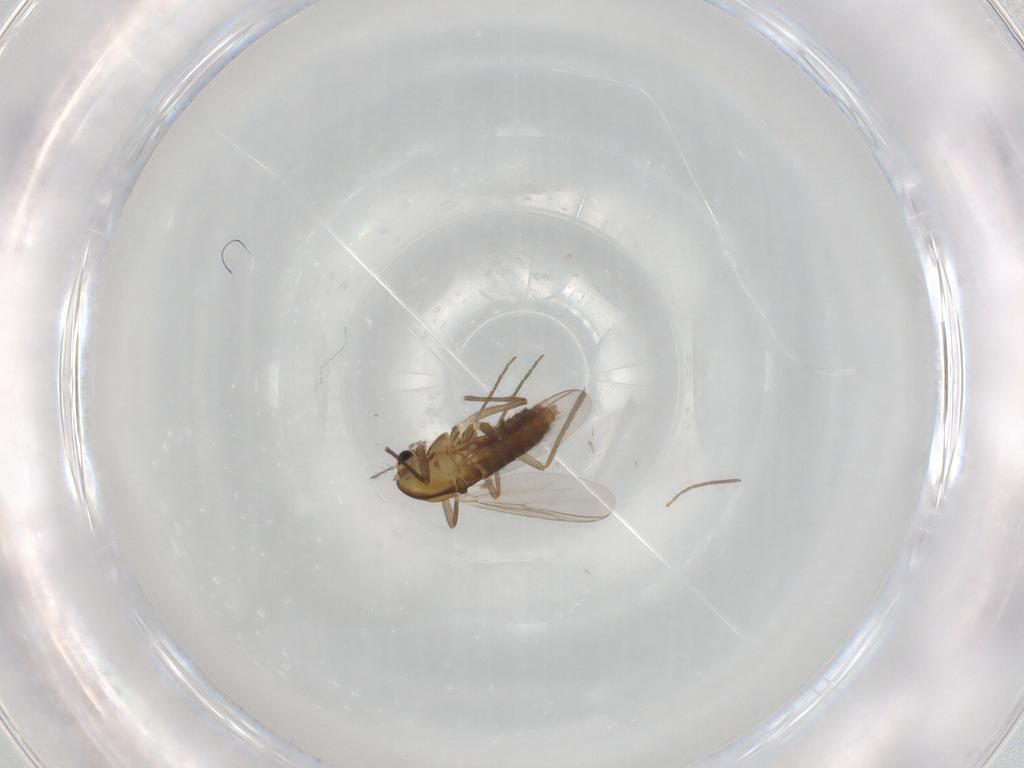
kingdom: Animalia
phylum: Arthropoda
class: Insecta
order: Diptera
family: Chironomidae
